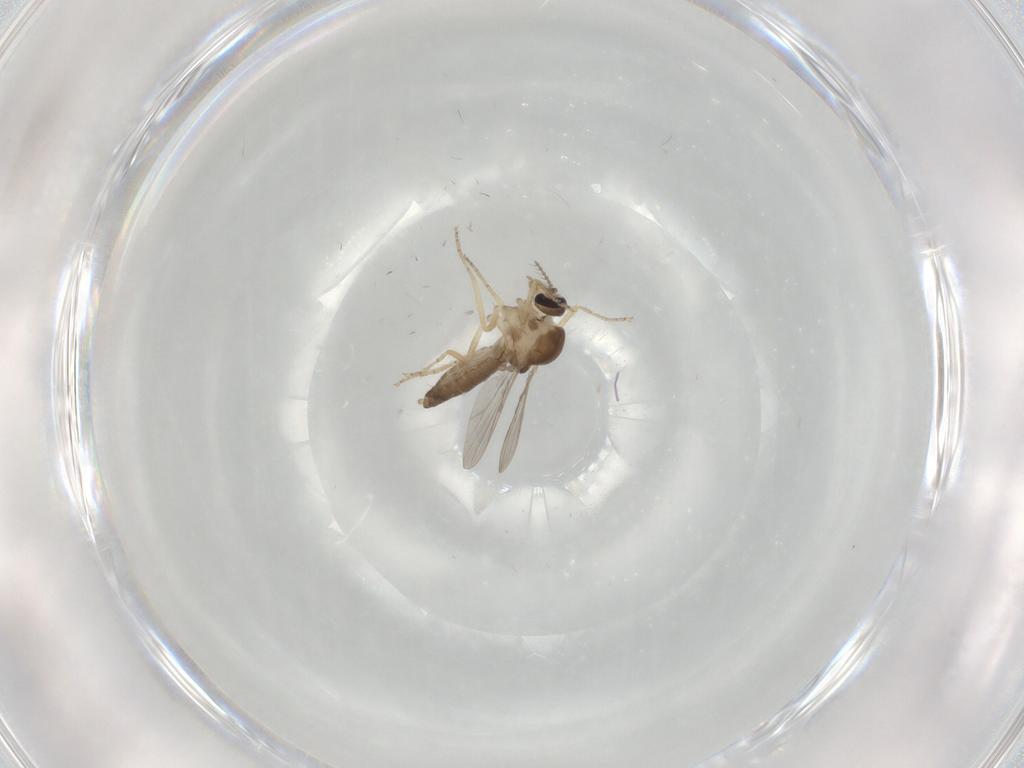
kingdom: Animalia
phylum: Arthropoda
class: Insecta
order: Diptera
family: Ceratopogonidae
